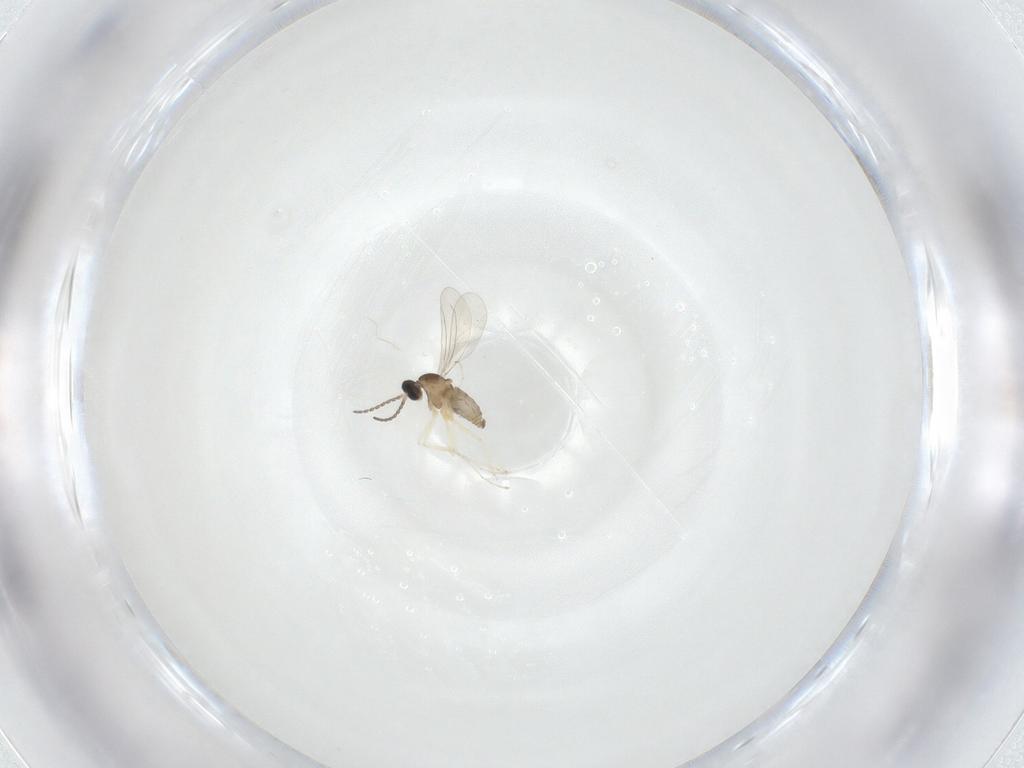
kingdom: Animalia
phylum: Arthropoda
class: Insecta
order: Diptera
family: Cecidomyiidae
